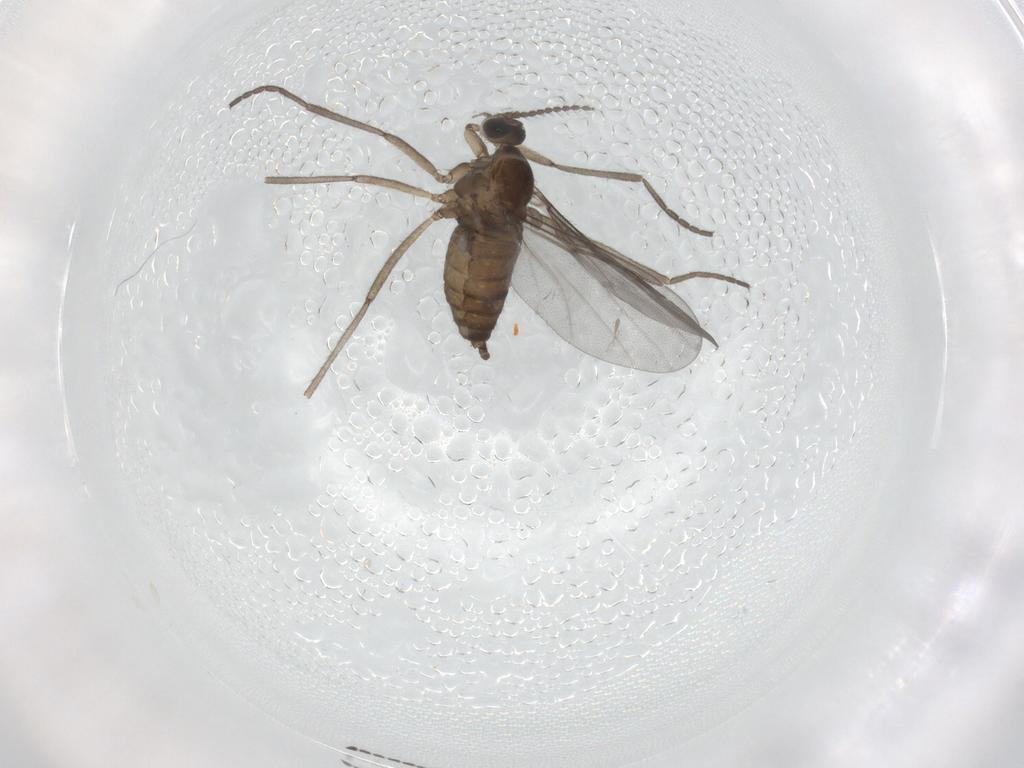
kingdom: Animalia
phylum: Arthropoda
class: Insecta
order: Diptera
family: Sciaridae
